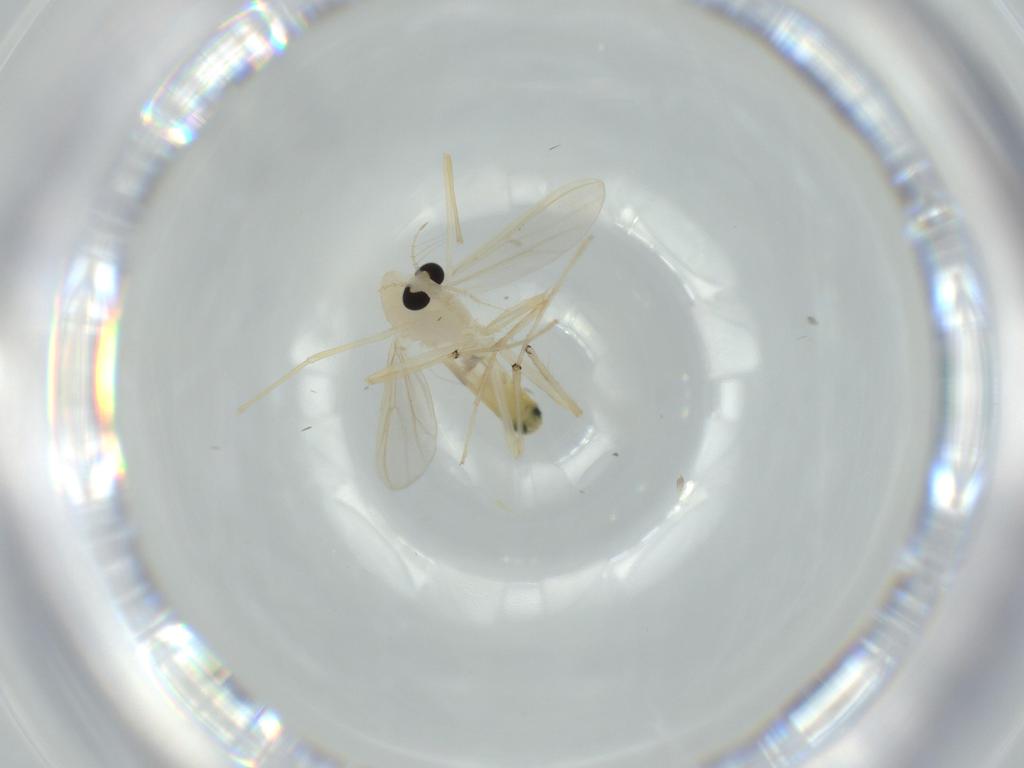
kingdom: Animalia
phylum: Arthropoda
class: Insecta
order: Diptera
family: Chironomidae
